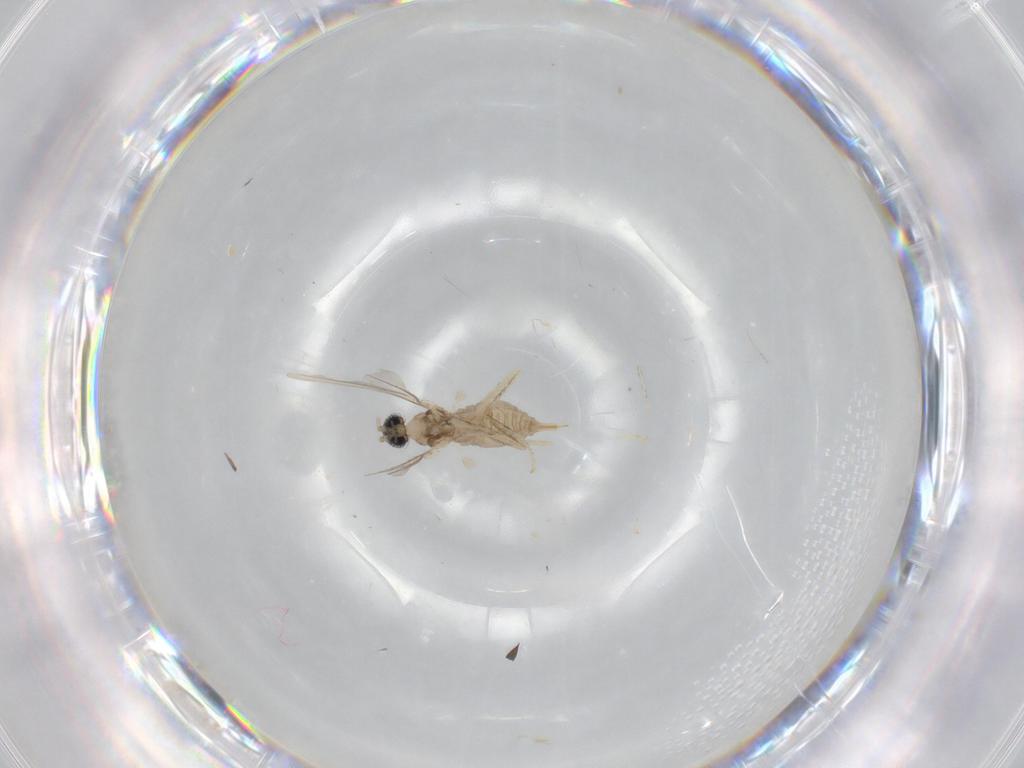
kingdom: Animalia
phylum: Arthropoda
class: Insecta
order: Diptera
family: Cecidomyiidae
